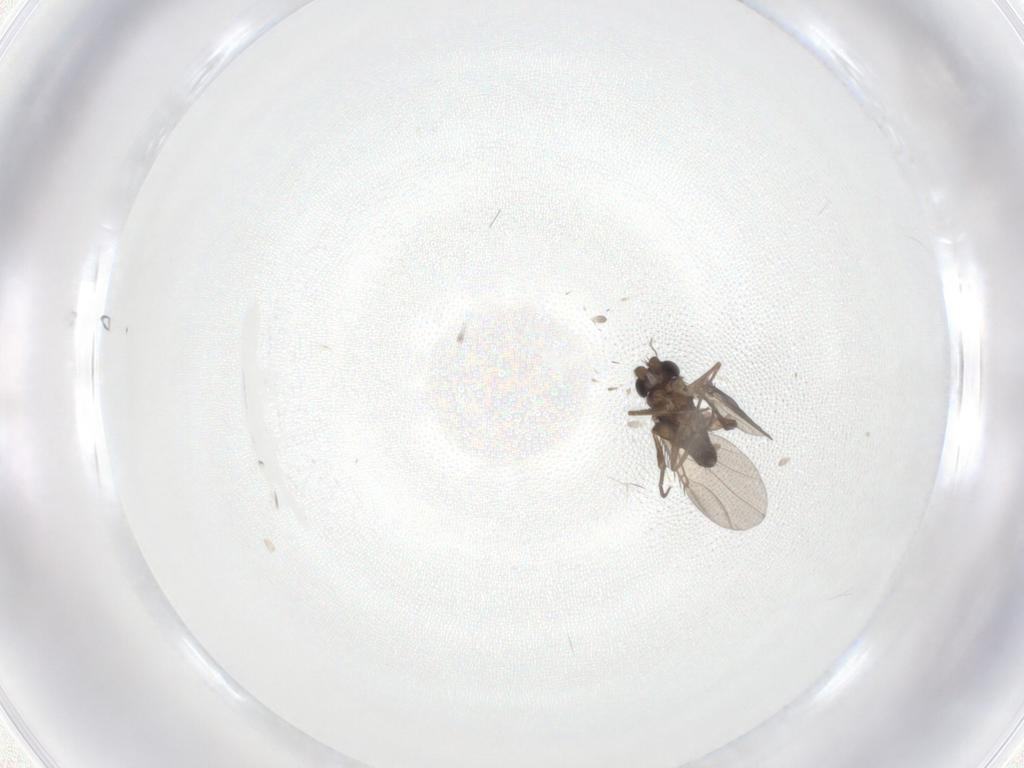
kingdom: Animalia
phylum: Arthropoda
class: Insecta
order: Diptera
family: Phoridae
